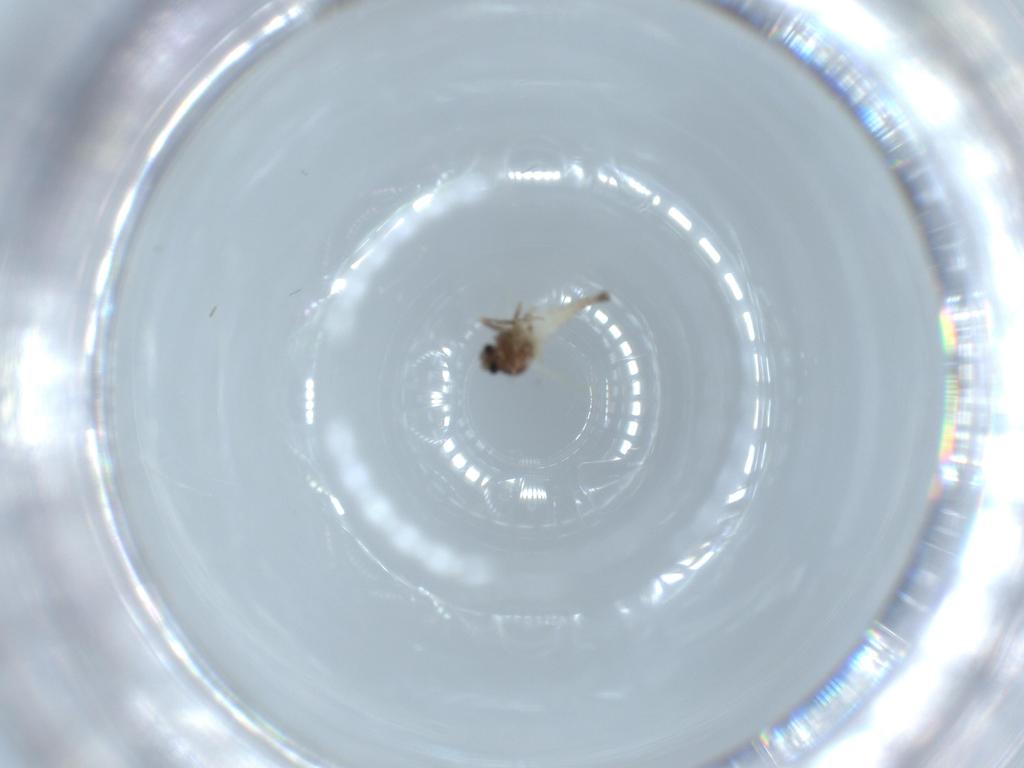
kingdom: Animalia
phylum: Arthropoda
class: Insecta
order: Diptera
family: Ceratopogonidae
